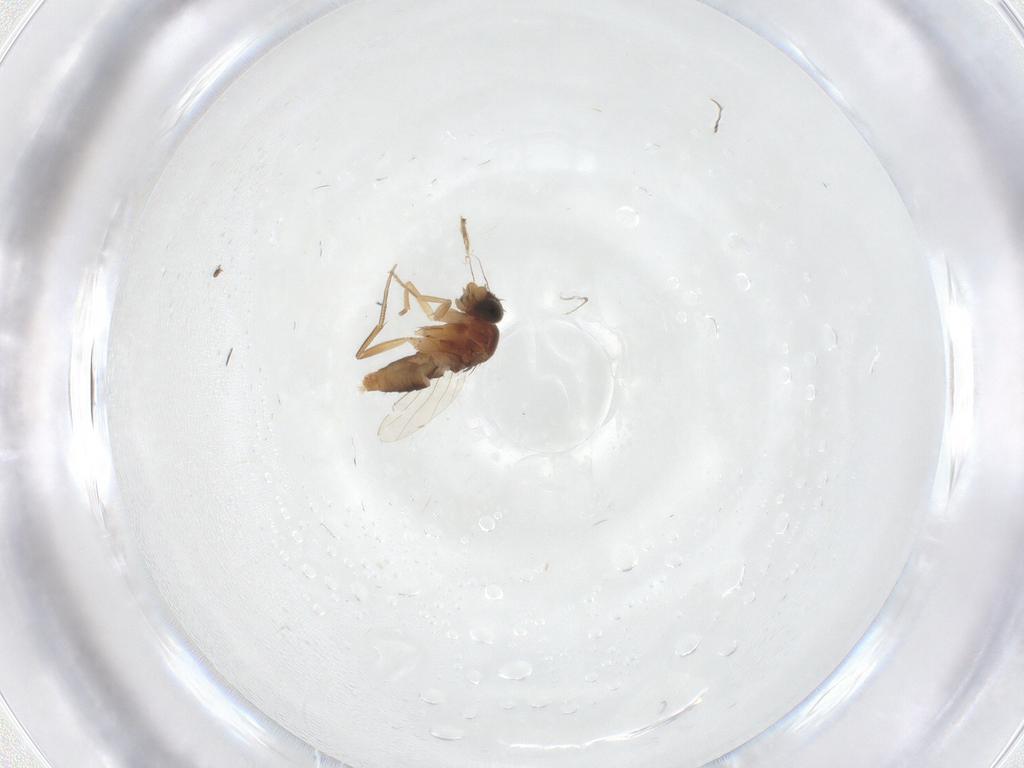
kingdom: Animalia
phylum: Arthropoda
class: Insecta
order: Diptera
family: Phoridae
